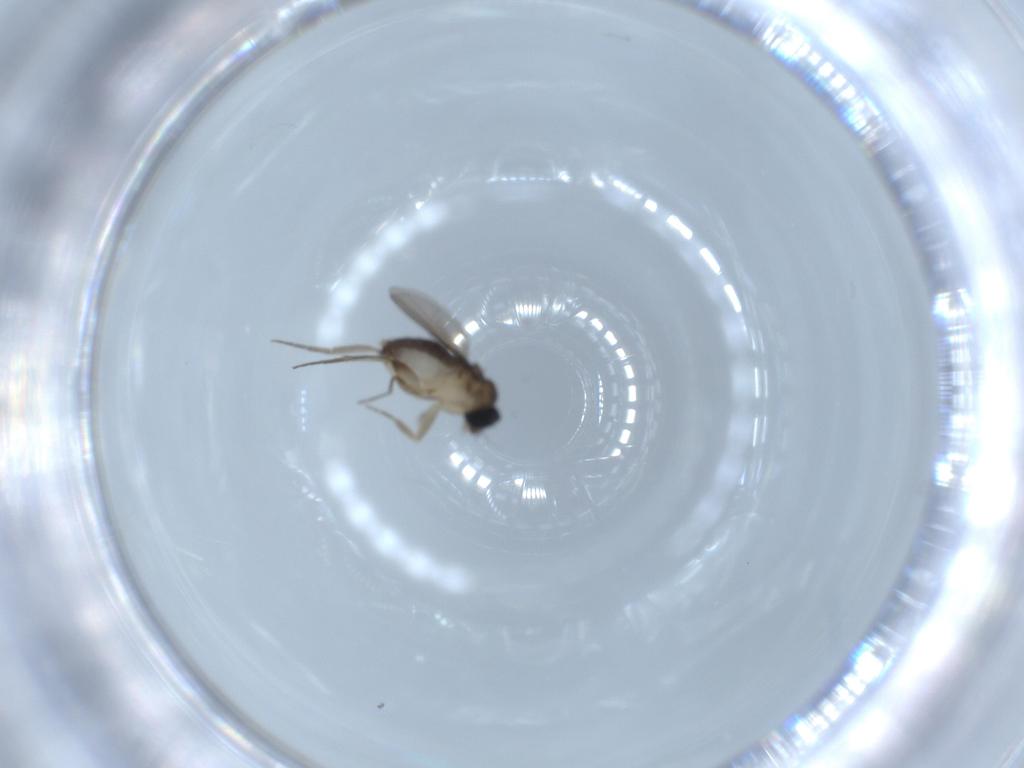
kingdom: Animalia
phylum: Arthropoda
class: Insecta
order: Diptera
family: Phoridae
